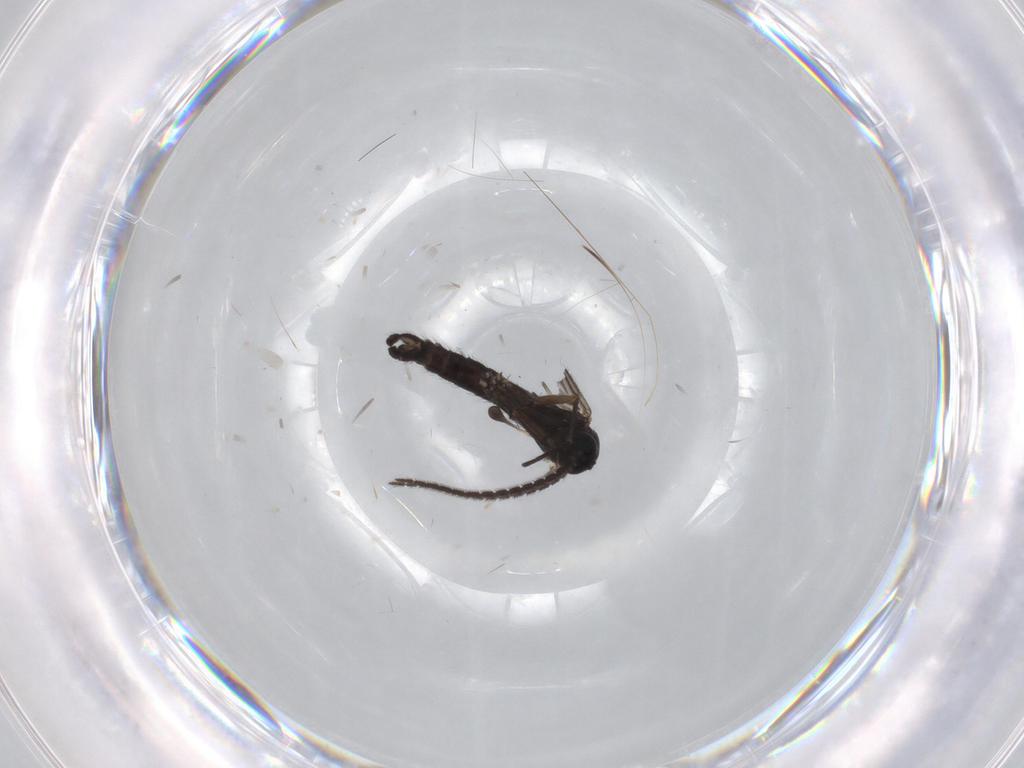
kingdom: Animalia
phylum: Arthropoda
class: Insecta
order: Diptera
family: Sciaridae
